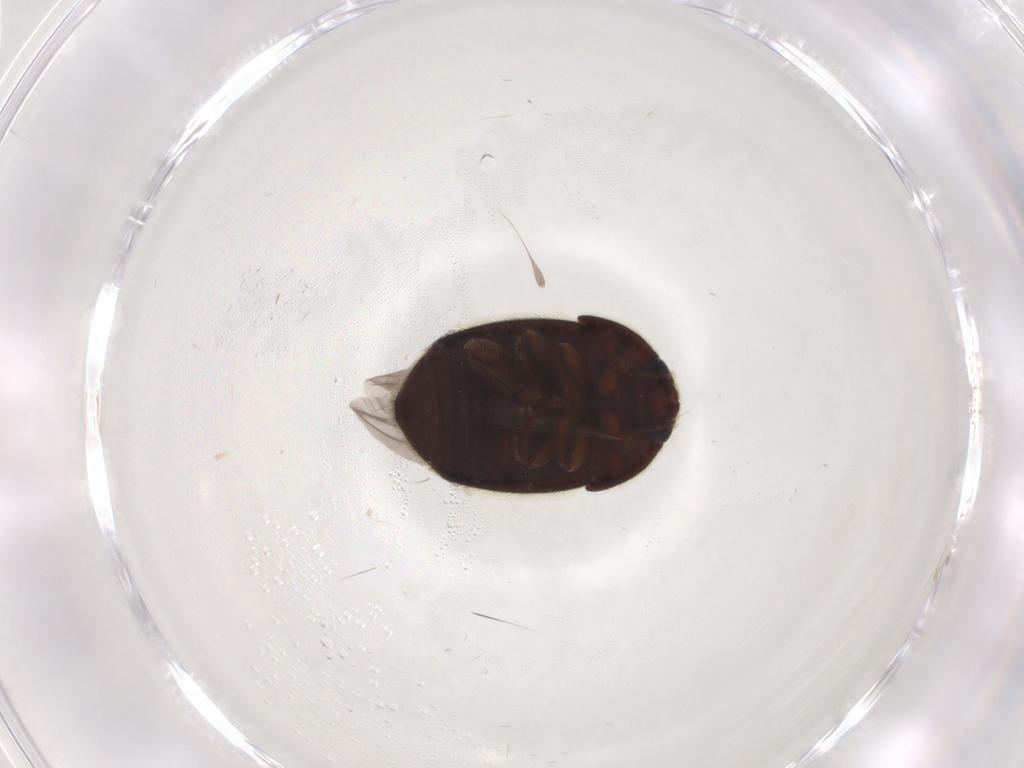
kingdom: Animalia
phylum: Arthropoda
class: Insecta
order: Coleoptera
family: Nitidulidae
